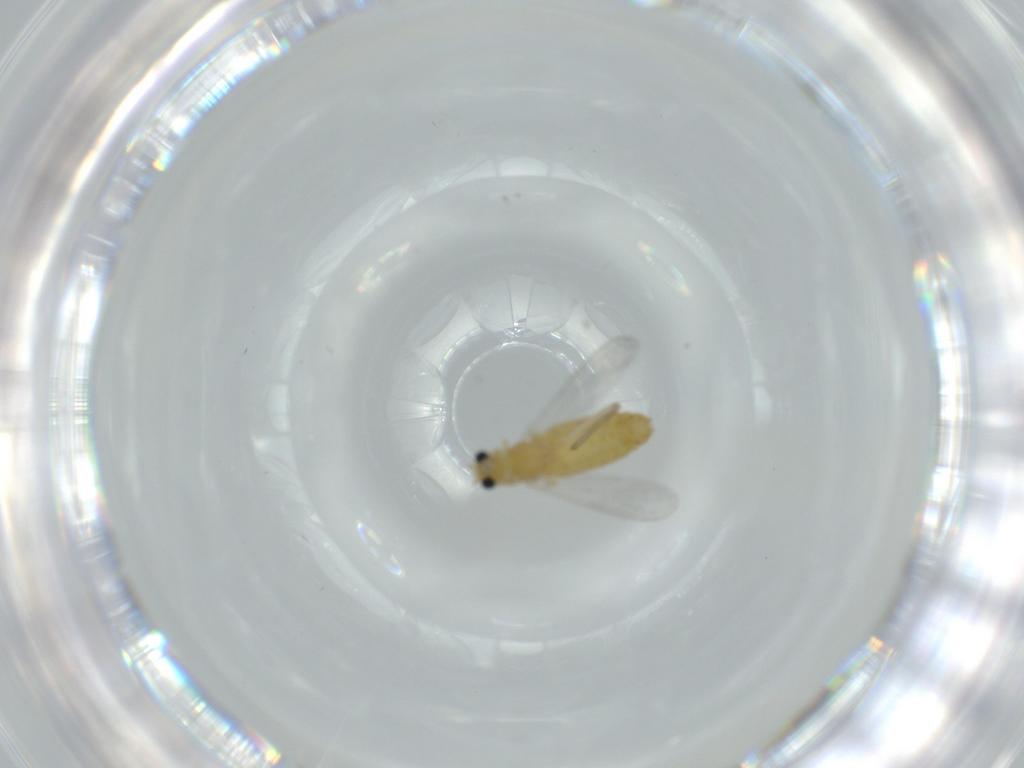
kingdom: Animalia
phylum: Arthropoda
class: Insecta
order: Diptera
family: Chironomidae
